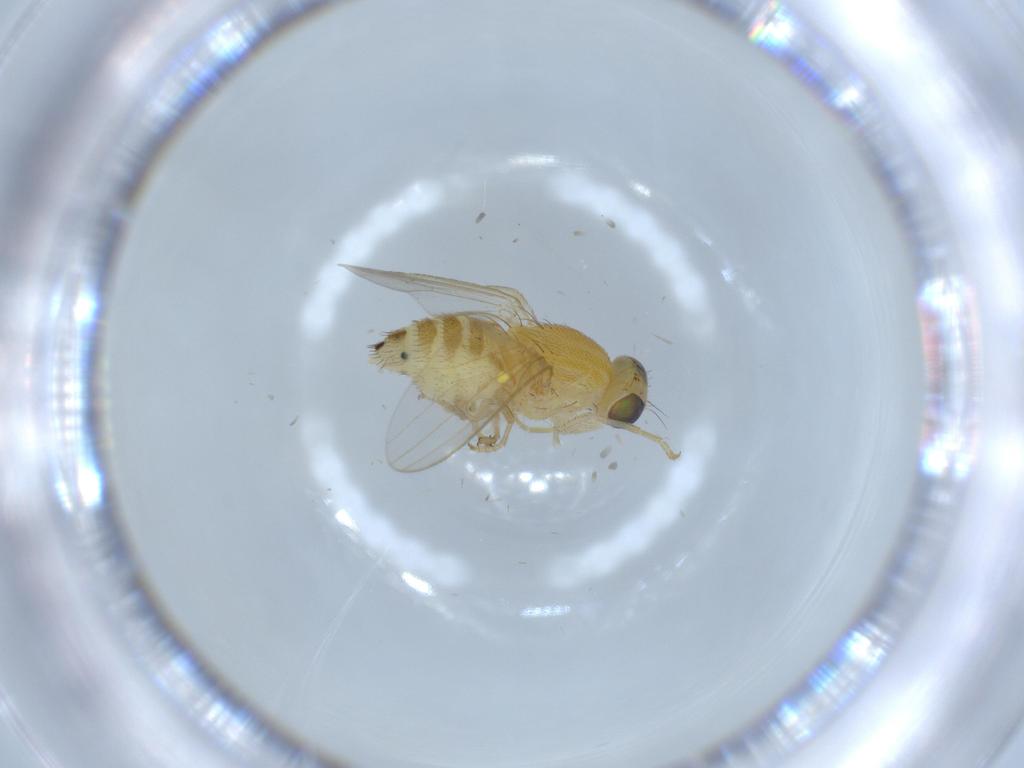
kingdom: Animalia
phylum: Arthropoda
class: Insecta
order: Diptera
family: Chyromyidae
